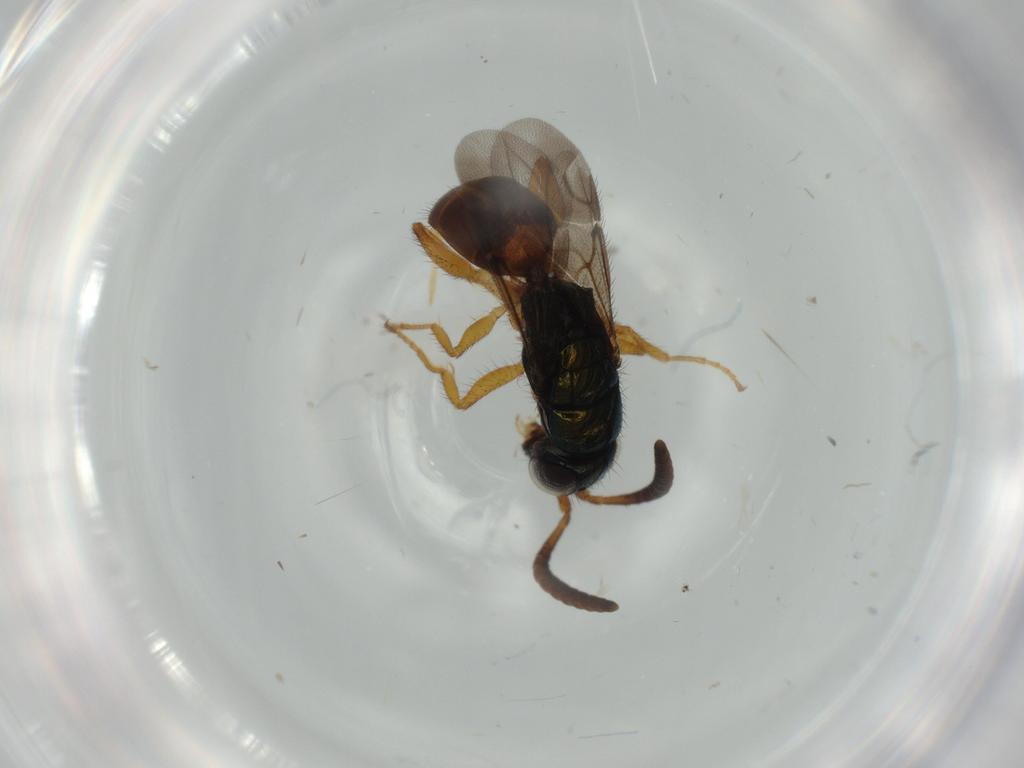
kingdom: Animalia
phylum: Arthropoda
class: Insecta
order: Hymenoptera
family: Chrysididae
